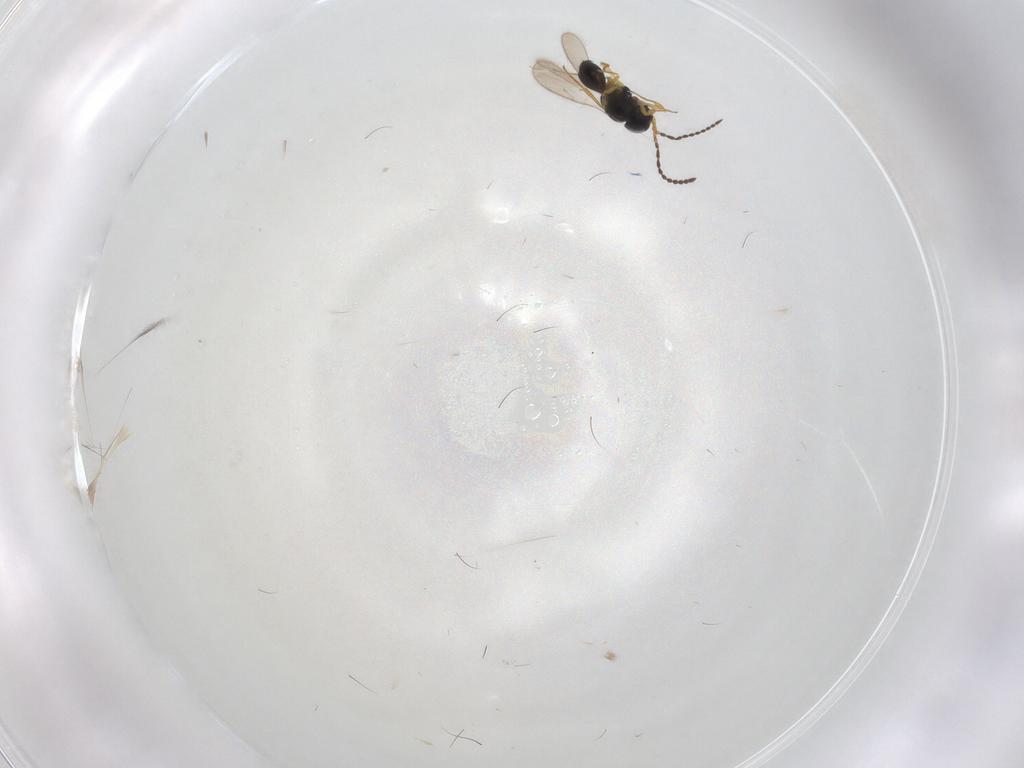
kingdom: Animalia
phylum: Arthropoda
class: Insecta
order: Hymenoptera
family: Scelionidae
